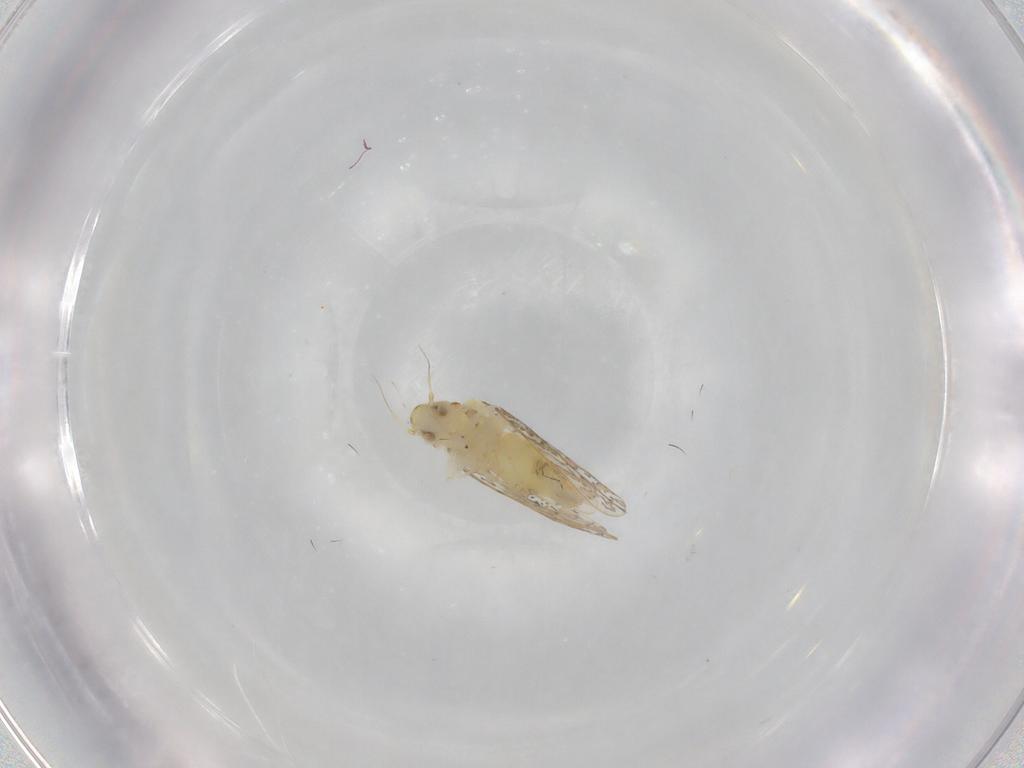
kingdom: Animalia
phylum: Arthropoda
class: Insecta
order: Hemiptera
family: Aleyrodidae
